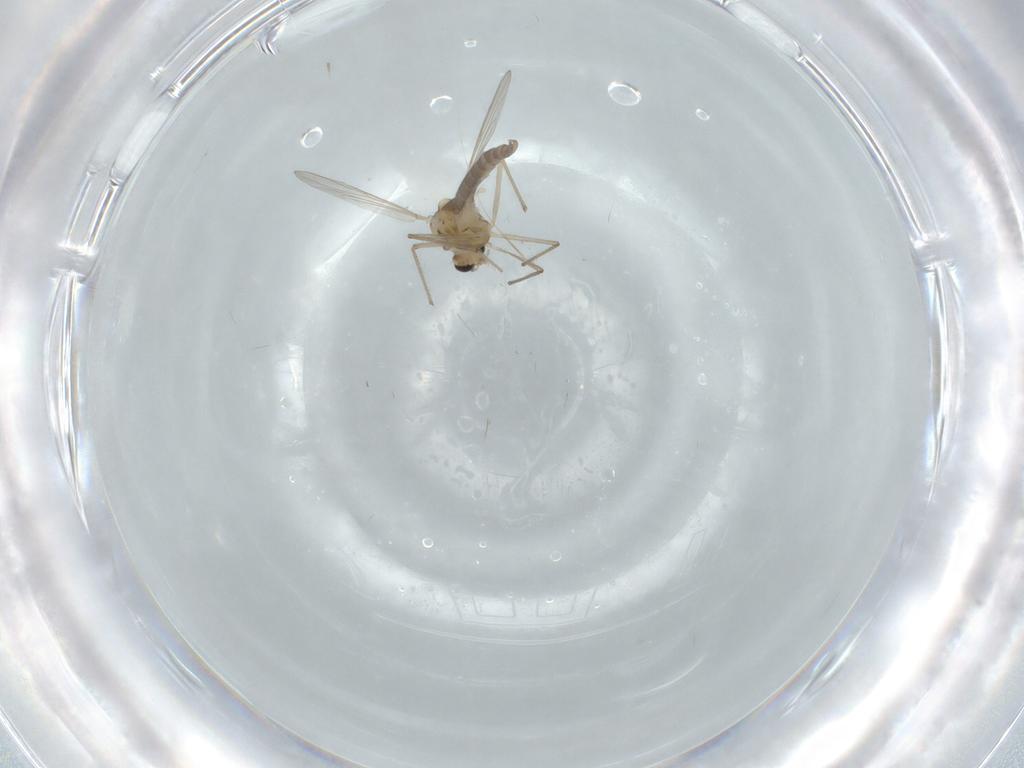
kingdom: Animalia
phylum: Arthropoda
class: Insecta
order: Diptera
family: Chironomidae
